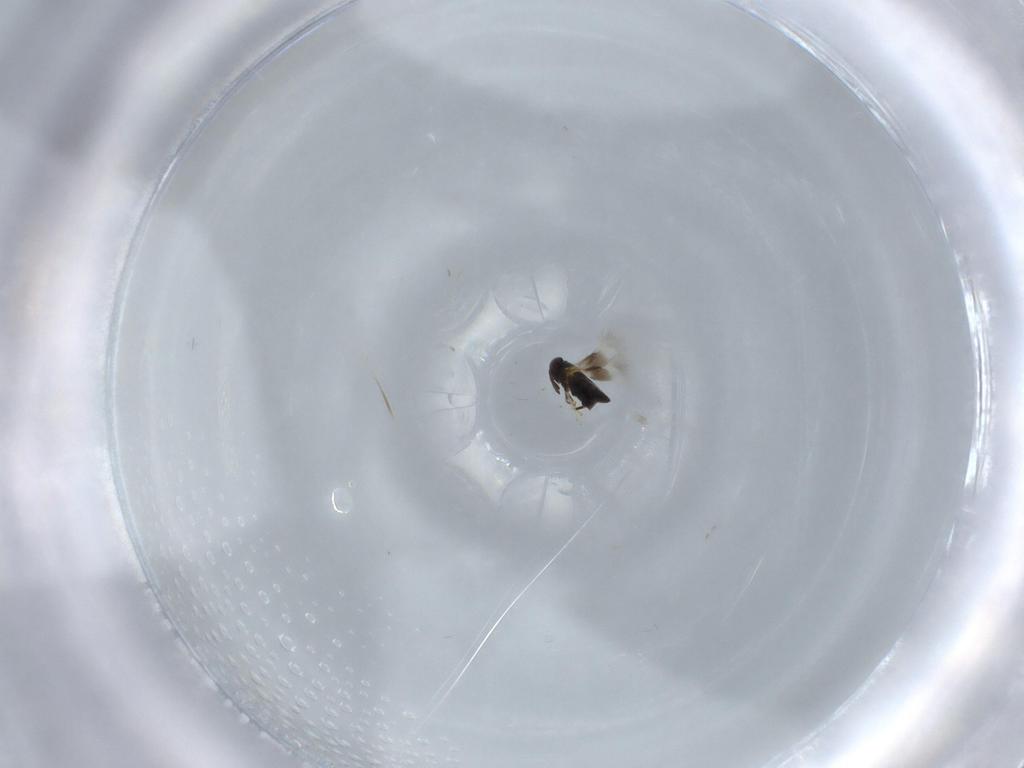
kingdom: Animalia
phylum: Arthropoda
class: Insecta
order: Hymenoptera
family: Signiphoridae
